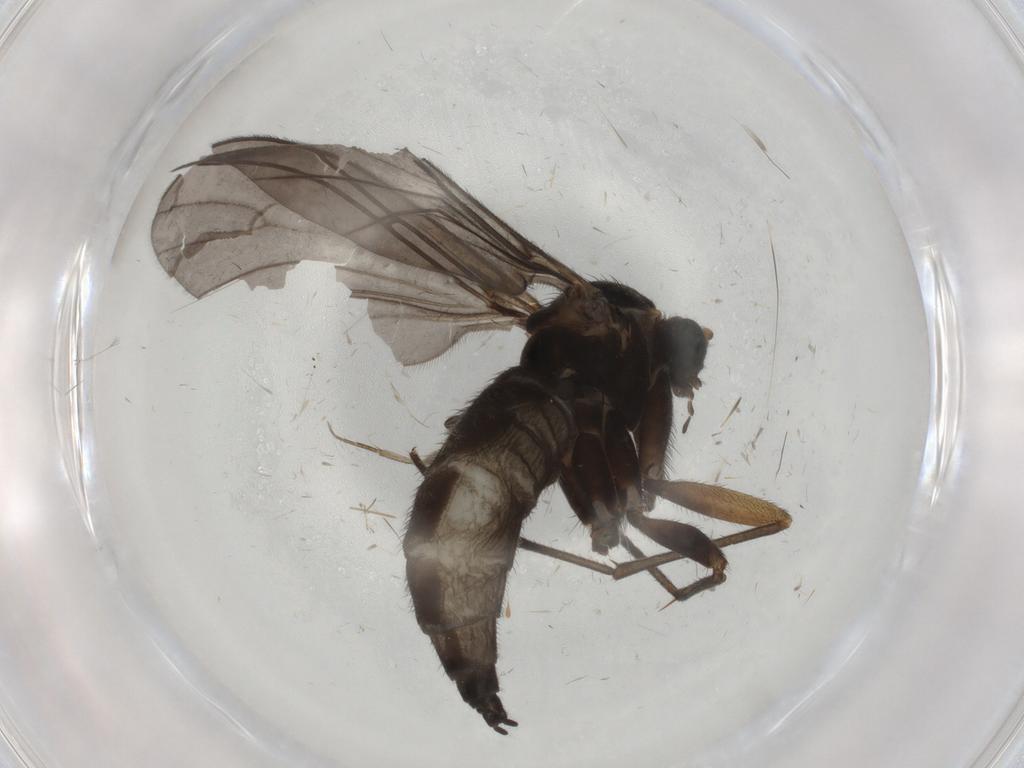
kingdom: Animalia
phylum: Arthropoda
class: Insecta
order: Diptera
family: Sciaridae
